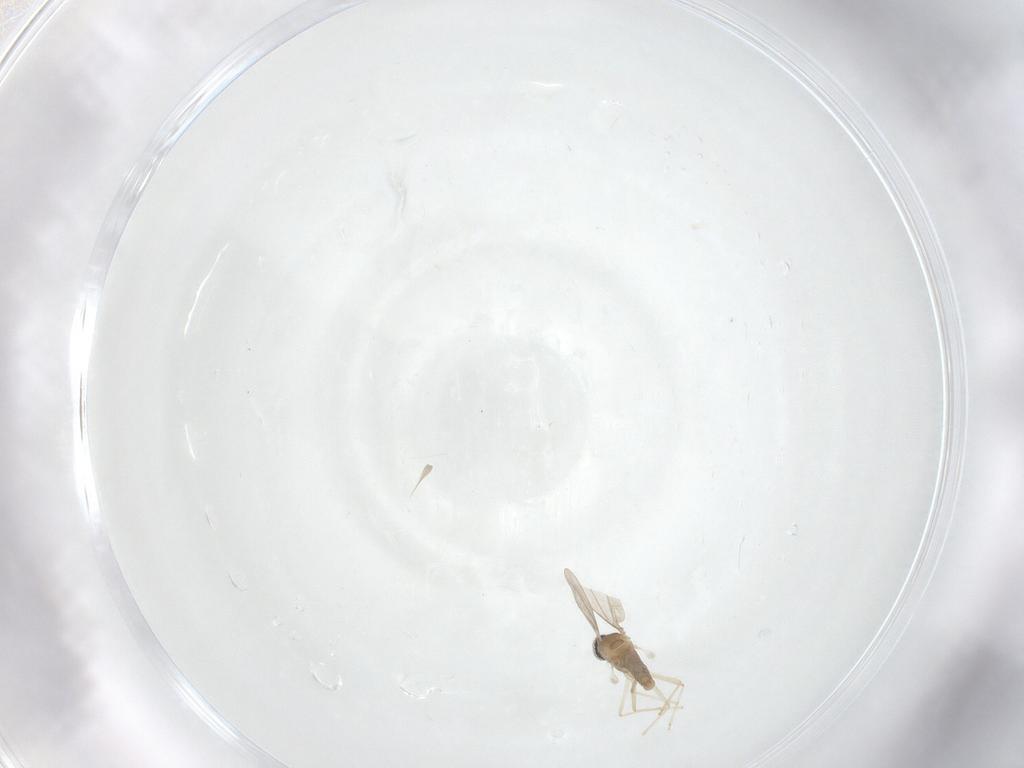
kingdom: Animalia
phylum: Arthropoda
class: Insecta
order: Diptera
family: Cecidomyiidae
